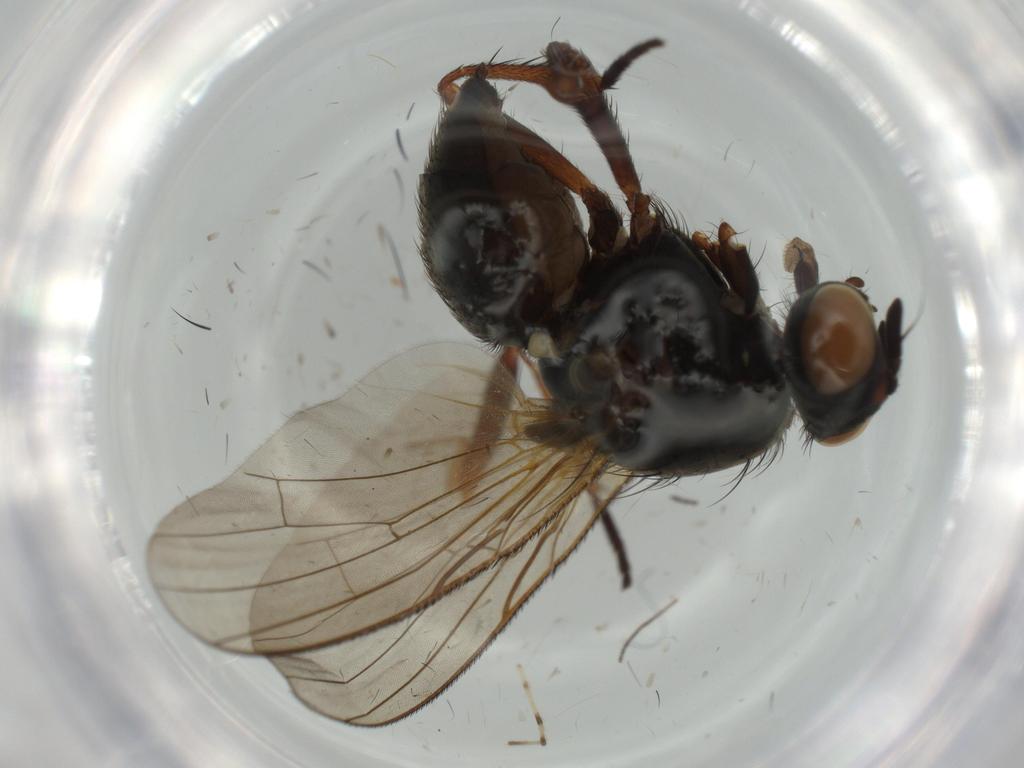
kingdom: Animalia
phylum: Arthropoda
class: Insecta
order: Diptera
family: Anthomyiidae
